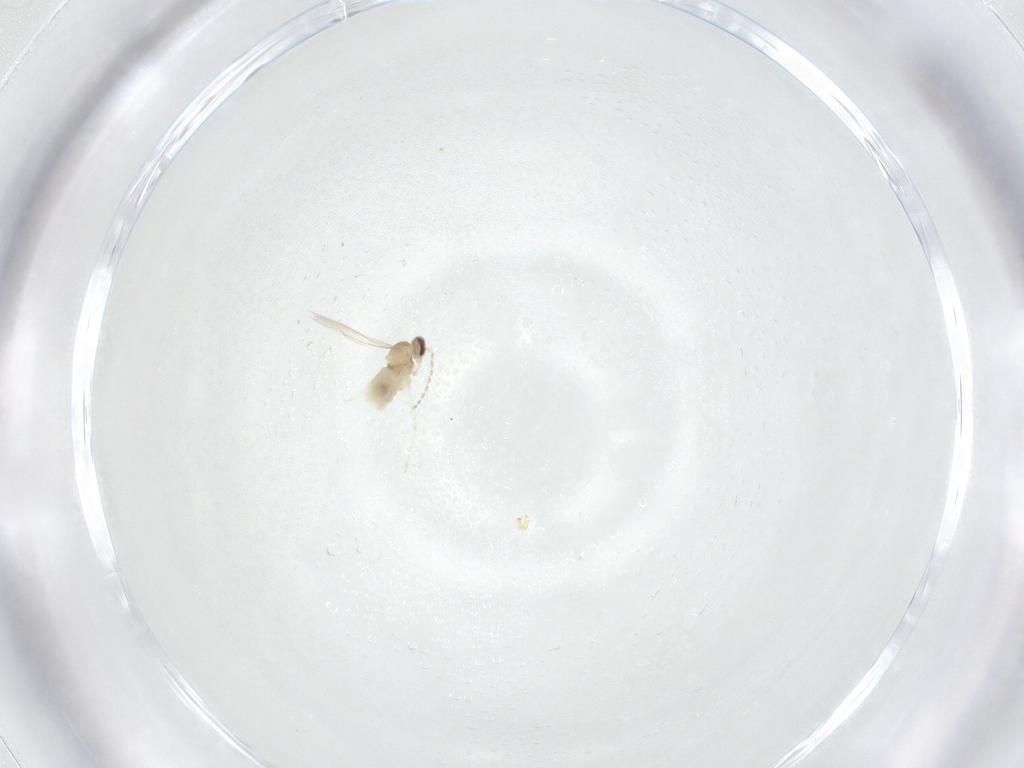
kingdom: Animalia
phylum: Arthropoda
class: Insecta
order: Diptera
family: Cecidomyiidae
